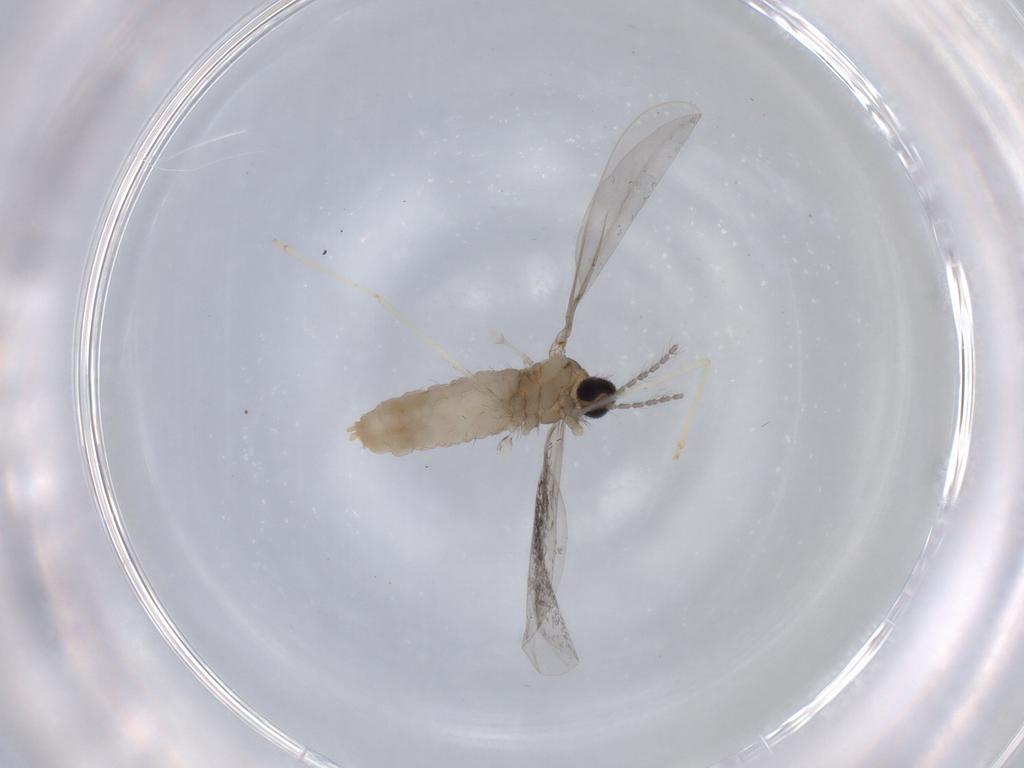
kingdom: Animalia
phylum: Arthropoda
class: Insecta
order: Diptera
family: Cecidomyiidae
